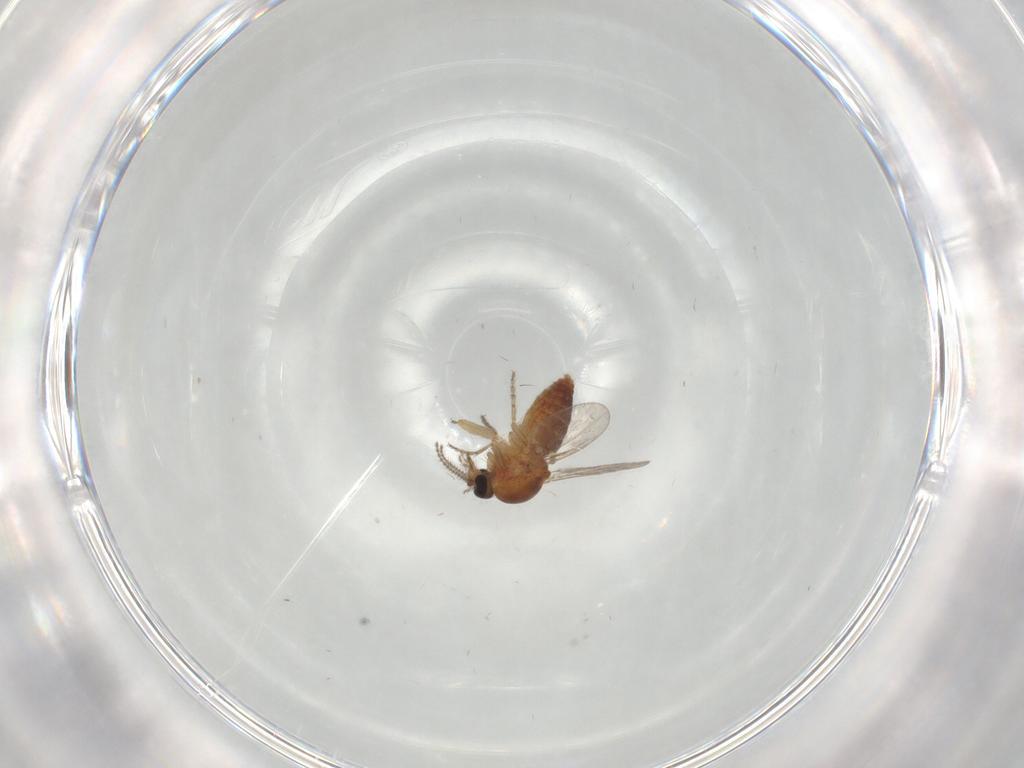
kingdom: Animalia
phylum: Arthropoda
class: Insecta
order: Diptera
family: Ceratopogonidae
